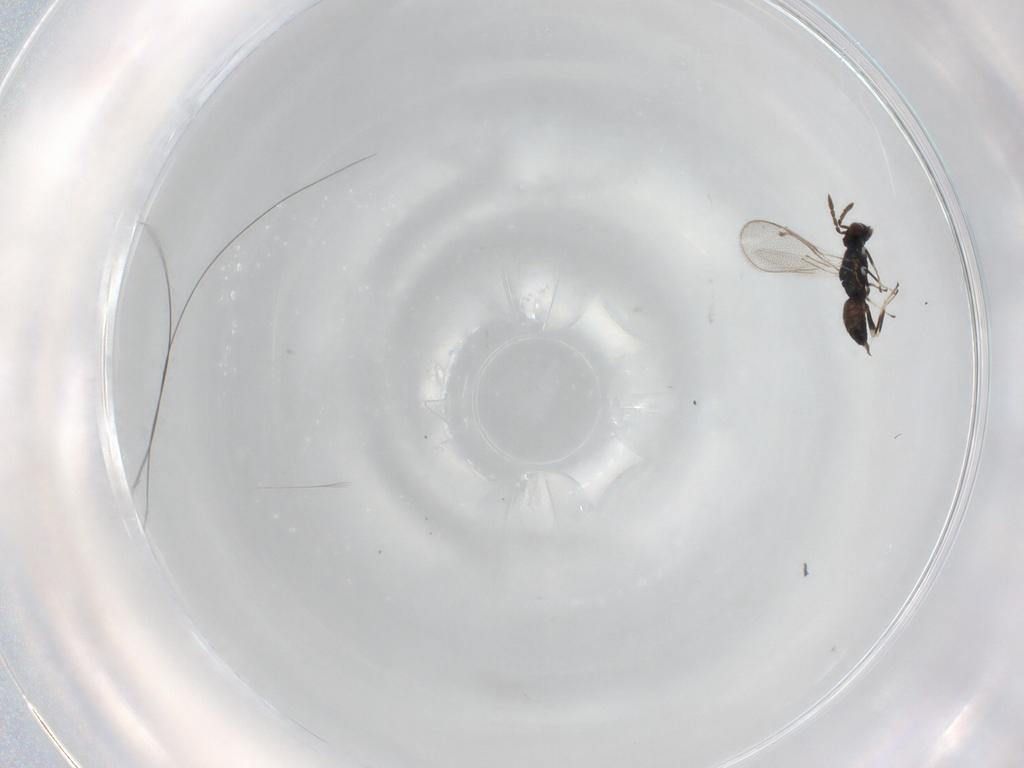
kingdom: Animalia
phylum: Arthropoda
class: Insecta
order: Hymenoptera
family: Eulophidae
